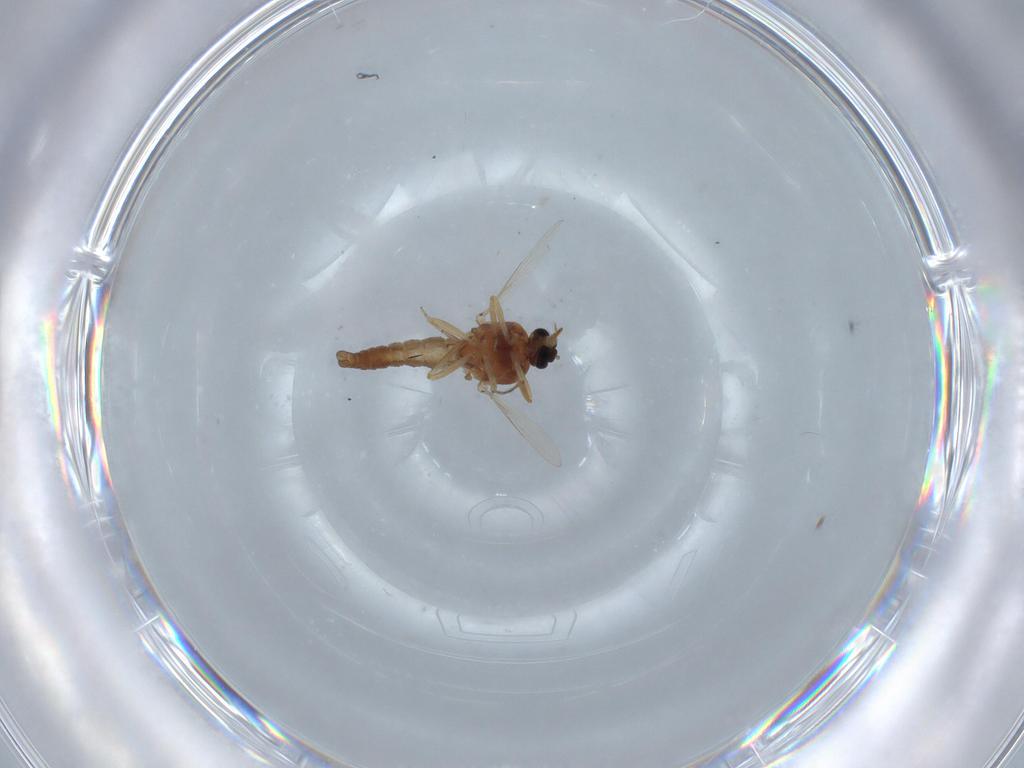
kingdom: Animalia
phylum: Arthropoda
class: Insecta
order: Diptera
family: Ceratopogonidae
